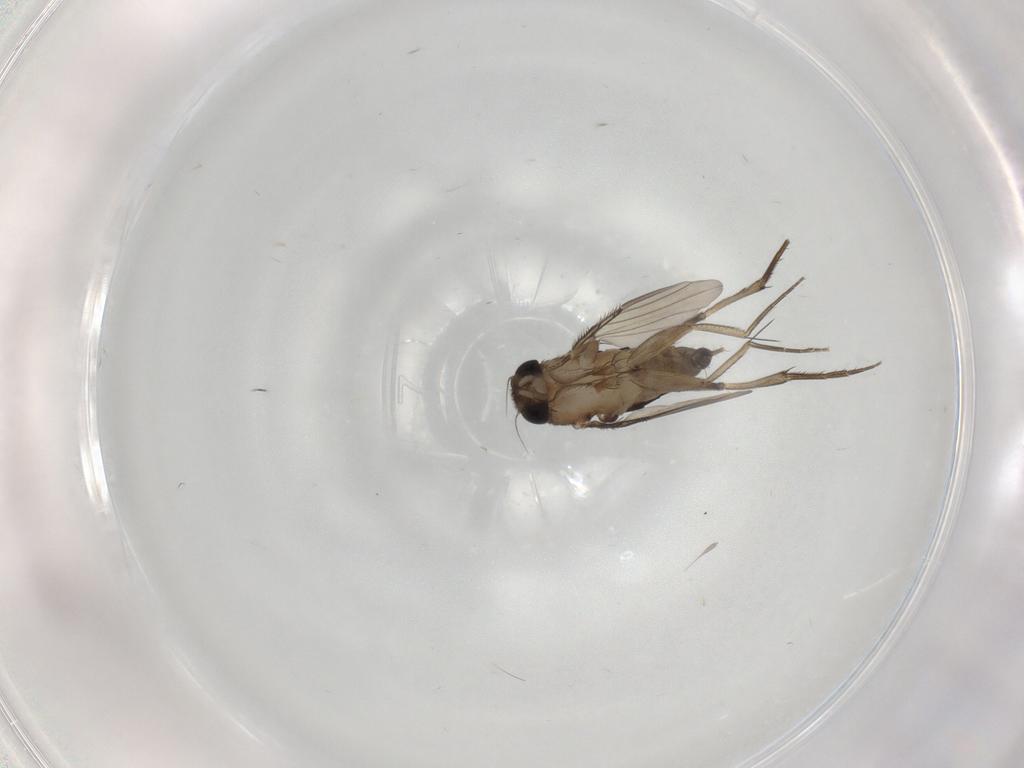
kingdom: Animalia
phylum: Arthropoda
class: Insecta
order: Diptera
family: Phoridae
